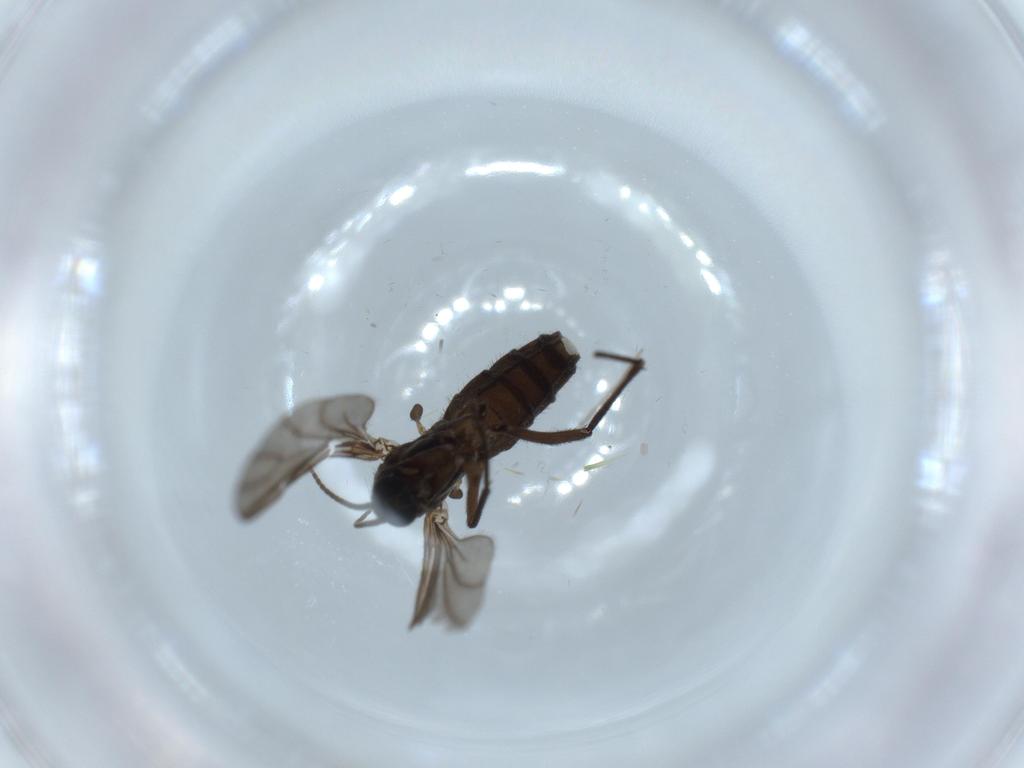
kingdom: Animalia
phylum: Arthropoda
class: Insecta
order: Diptera
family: Sciaridae
